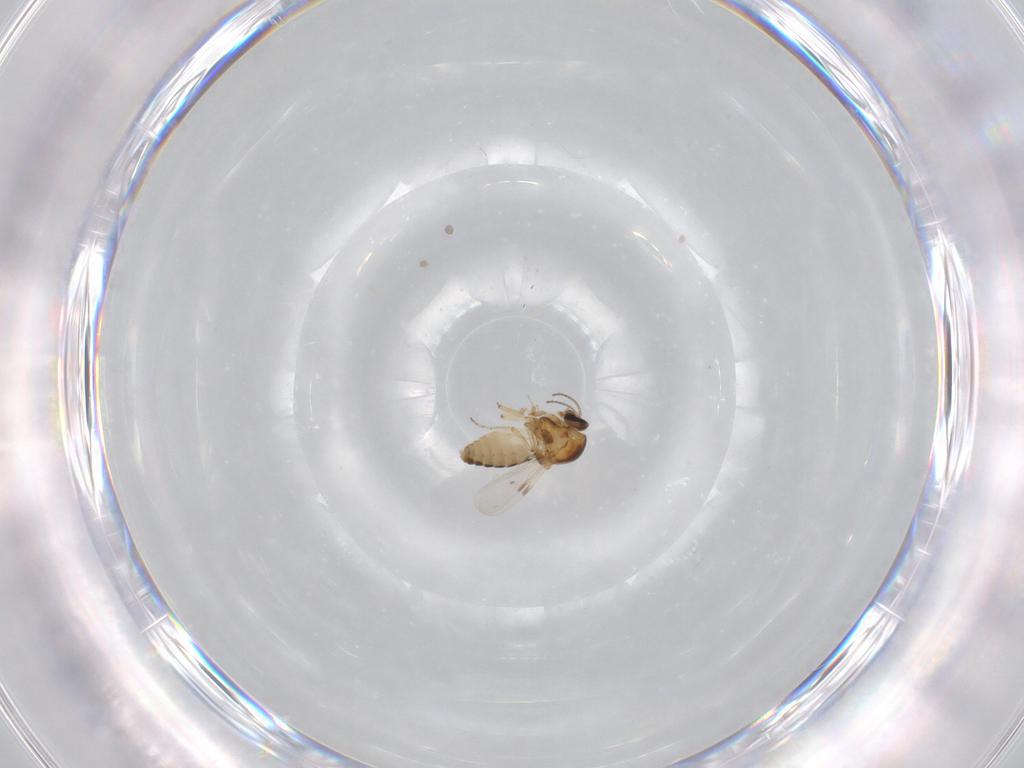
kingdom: Animalia
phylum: Arthropoda
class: Insecta
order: Diptera
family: Ceratopogonidae
